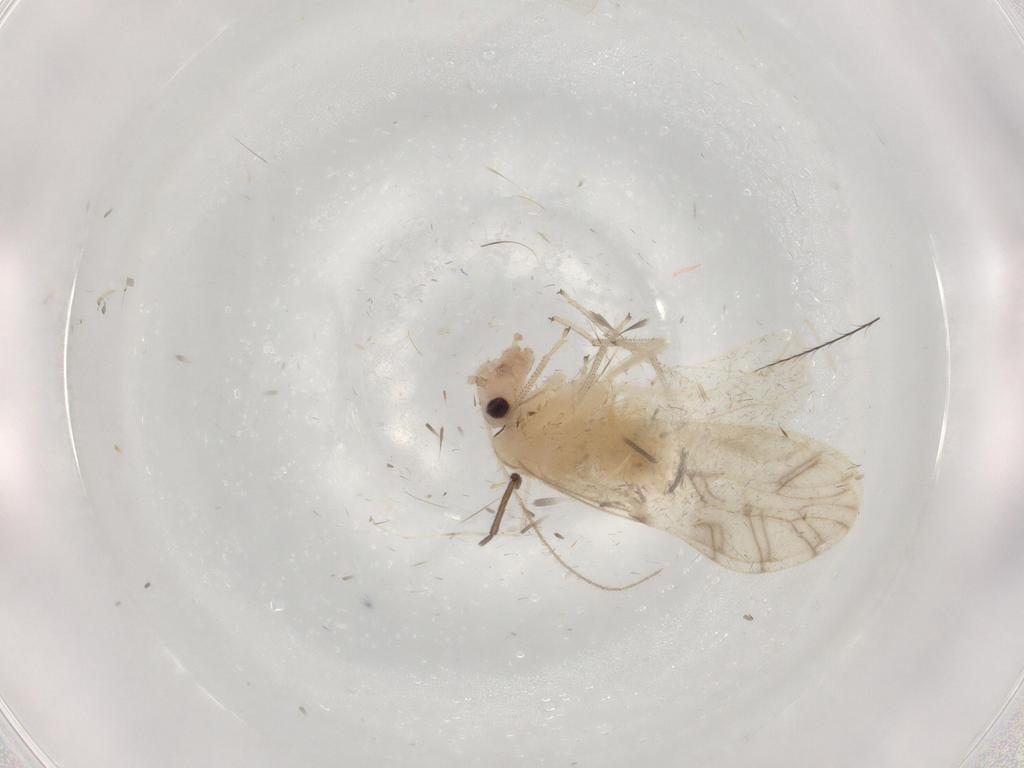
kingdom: Animalia
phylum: Arthropoda
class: Insecta
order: Psocodea
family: Caeciliusidae
